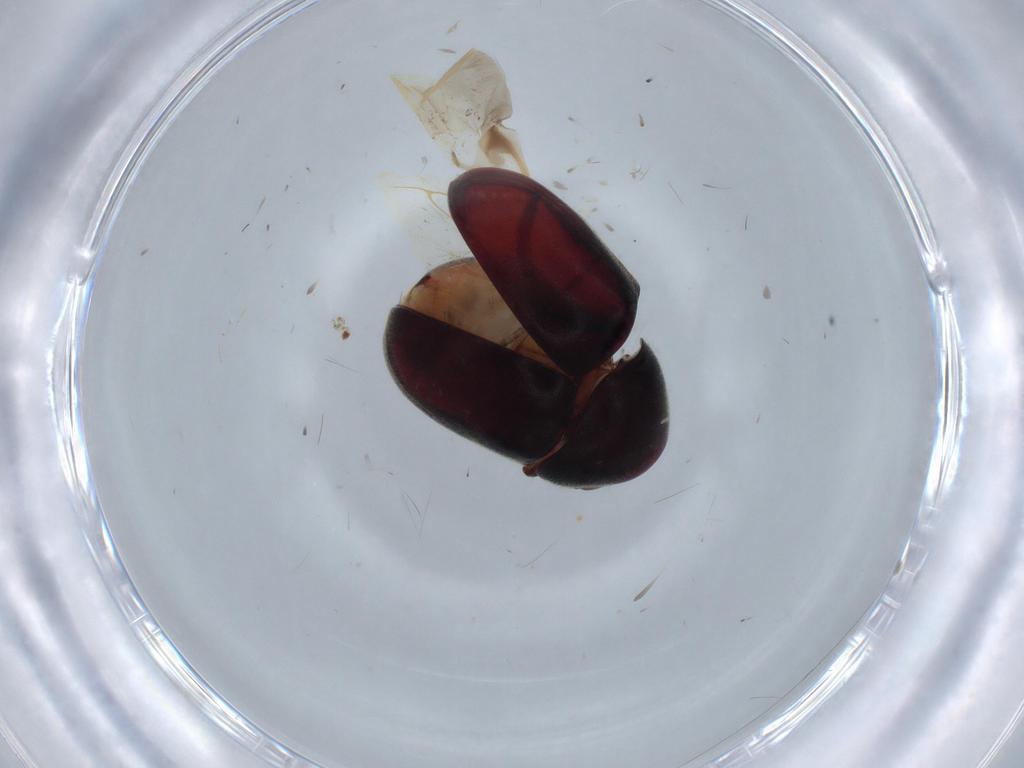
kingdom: Animalia
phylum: Arthropoda
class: Insecta
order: Coleoptera
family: Ptinidae
